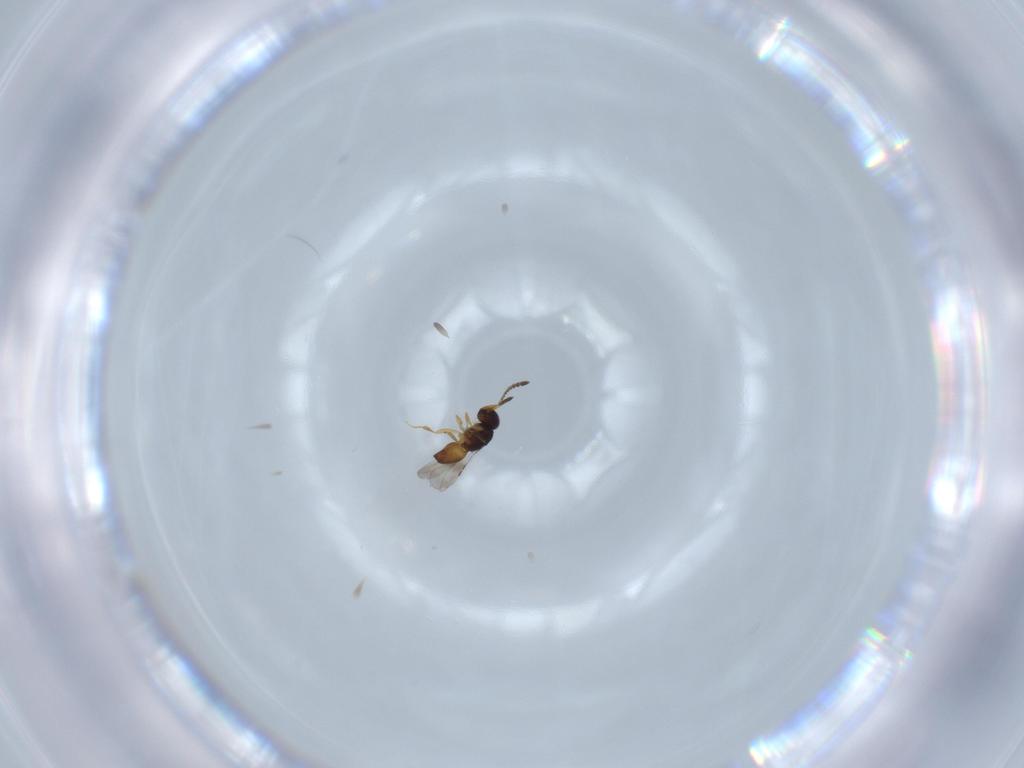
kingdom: Animalia
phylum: Arthropoda
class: Insecta
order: Hymenoptera
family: Diapriidae
